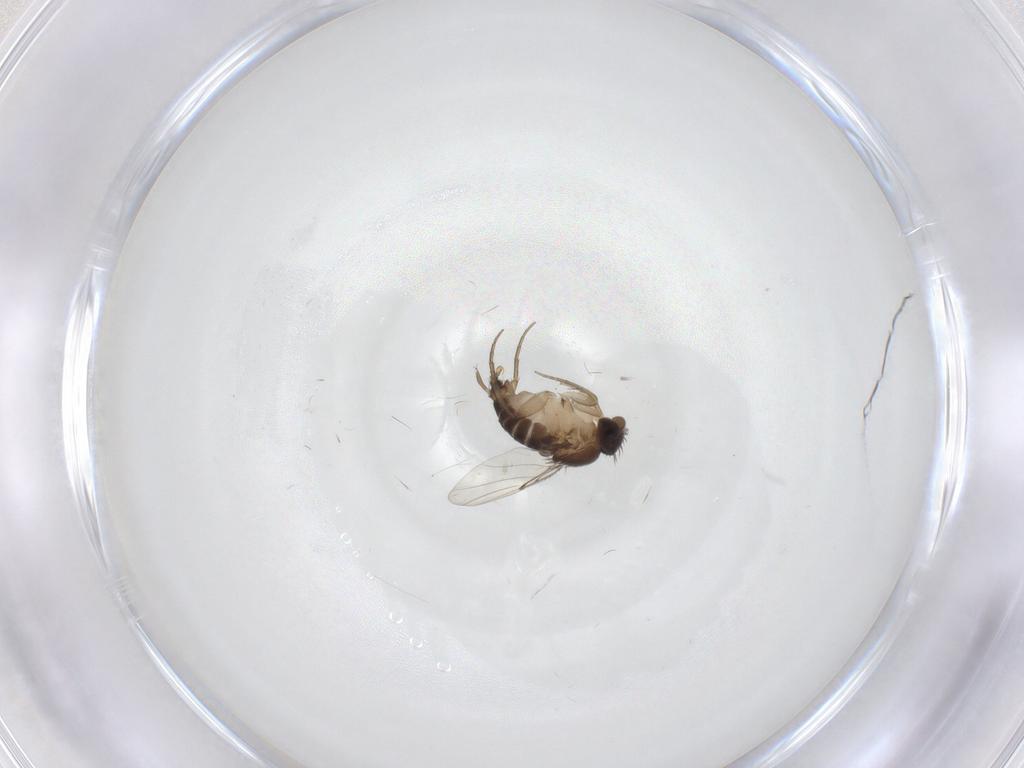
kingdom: Animalia
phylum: Arthropoda
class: Insecta
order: Diptera
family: Phoridae
